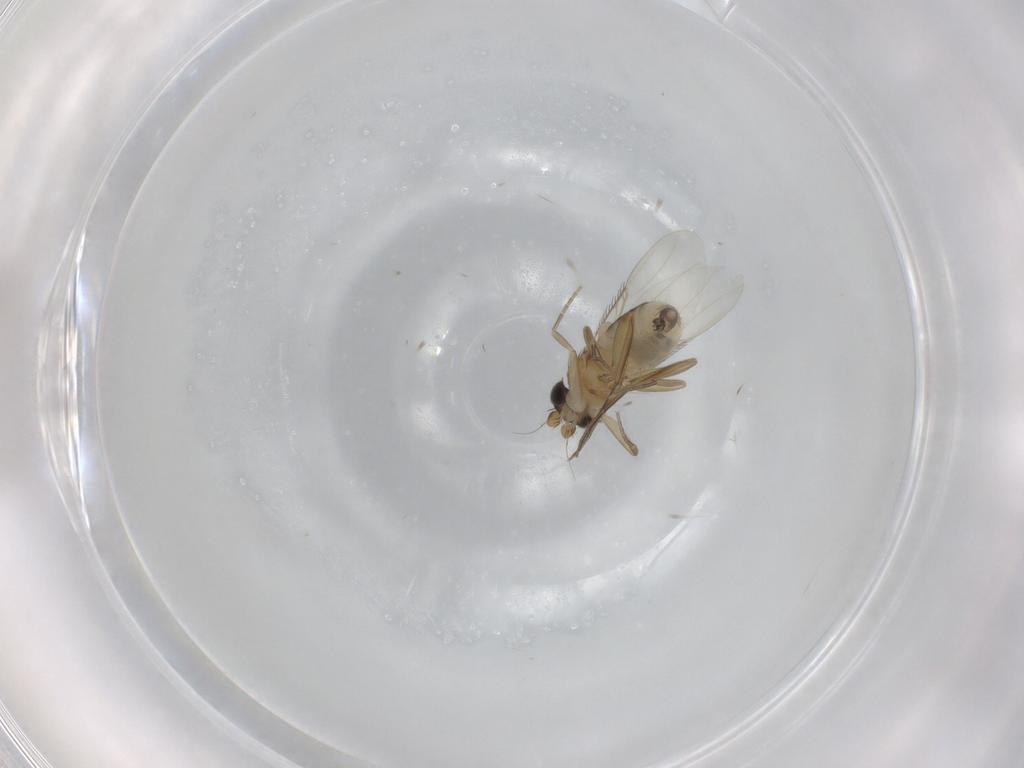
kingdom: Animalia
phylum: Arthropoda
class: Insecta
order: Diptera
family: Phoridae
